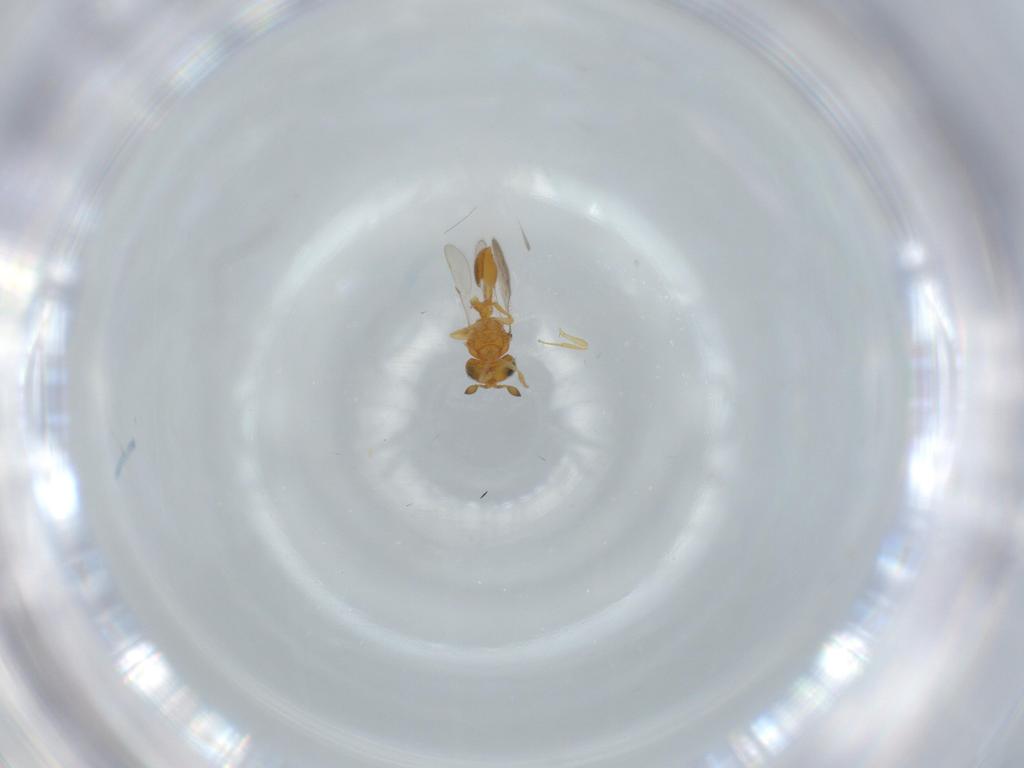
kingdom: Animalia
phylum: Arthropoda
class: Insecta
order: Hymenoptera
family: Scelionidae
